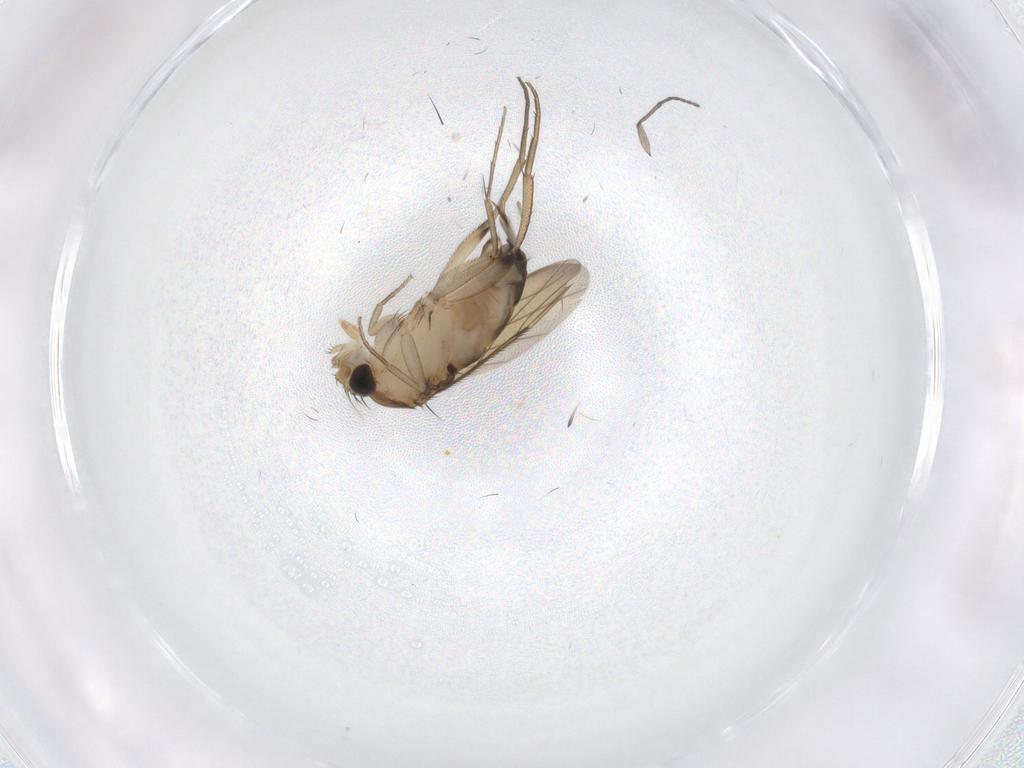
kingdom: Animalia
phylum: Arthropoda
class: Insecta
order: Diptera
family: Phoridae
